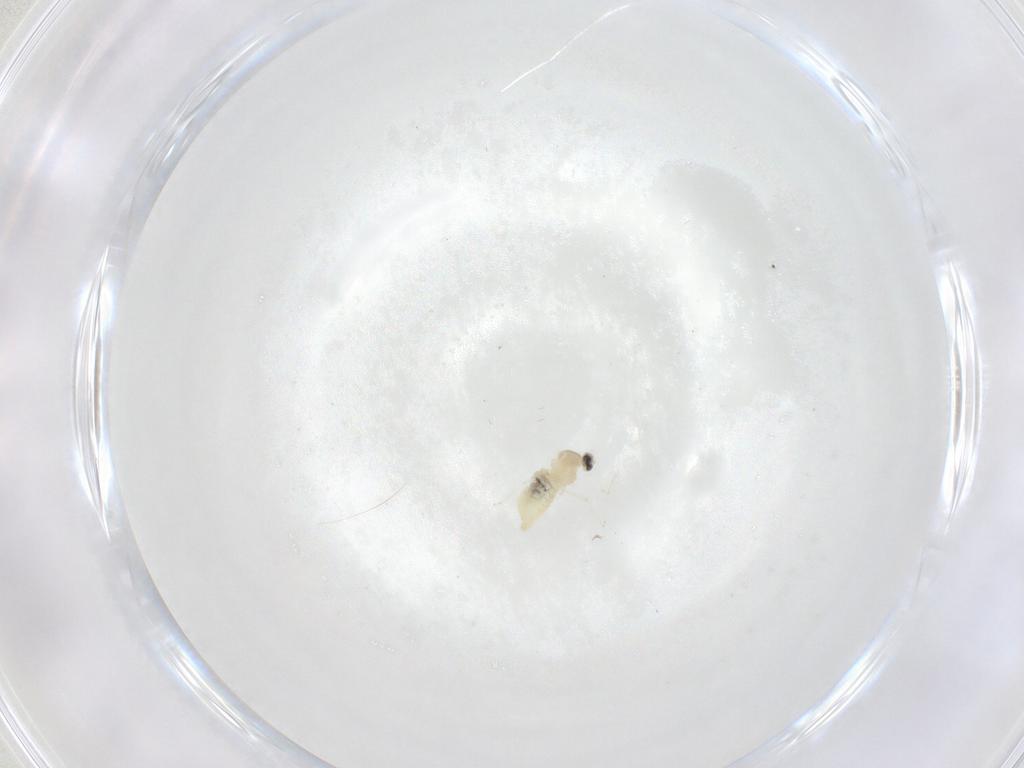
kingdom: Animalia
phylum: Arthropoda
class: Insecta
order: Diptera
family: Cecidomyiidae
